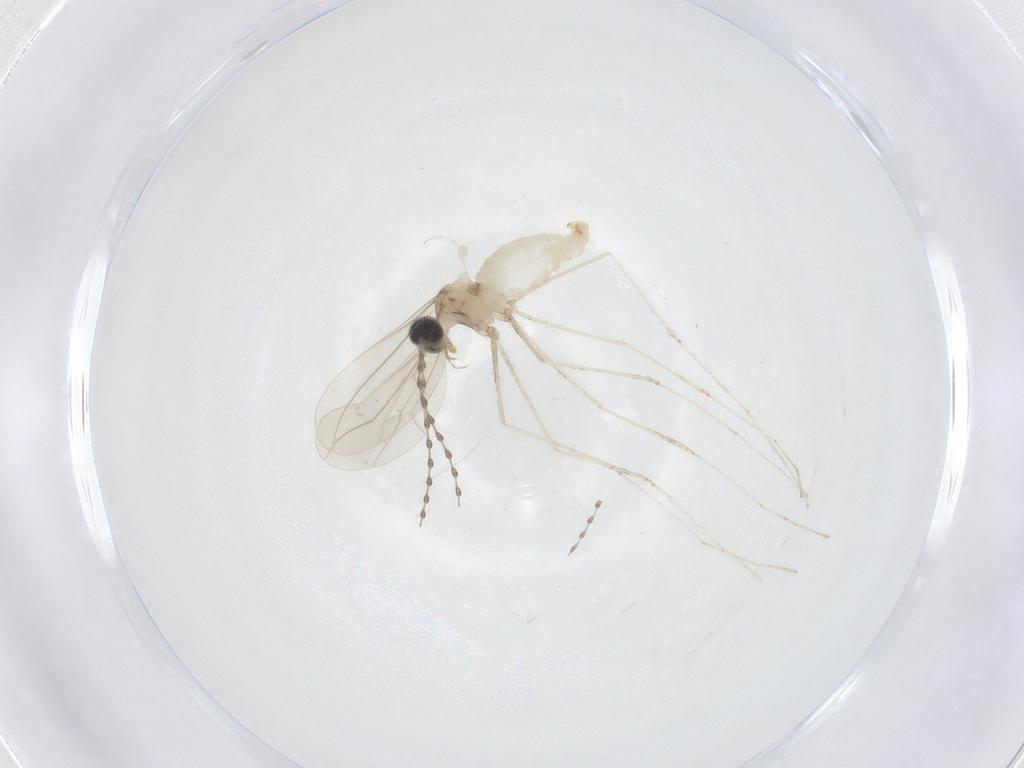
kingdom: Animalia
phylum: Arthropoda
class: Insecta
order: Diptera
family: Cecidomyiidae
